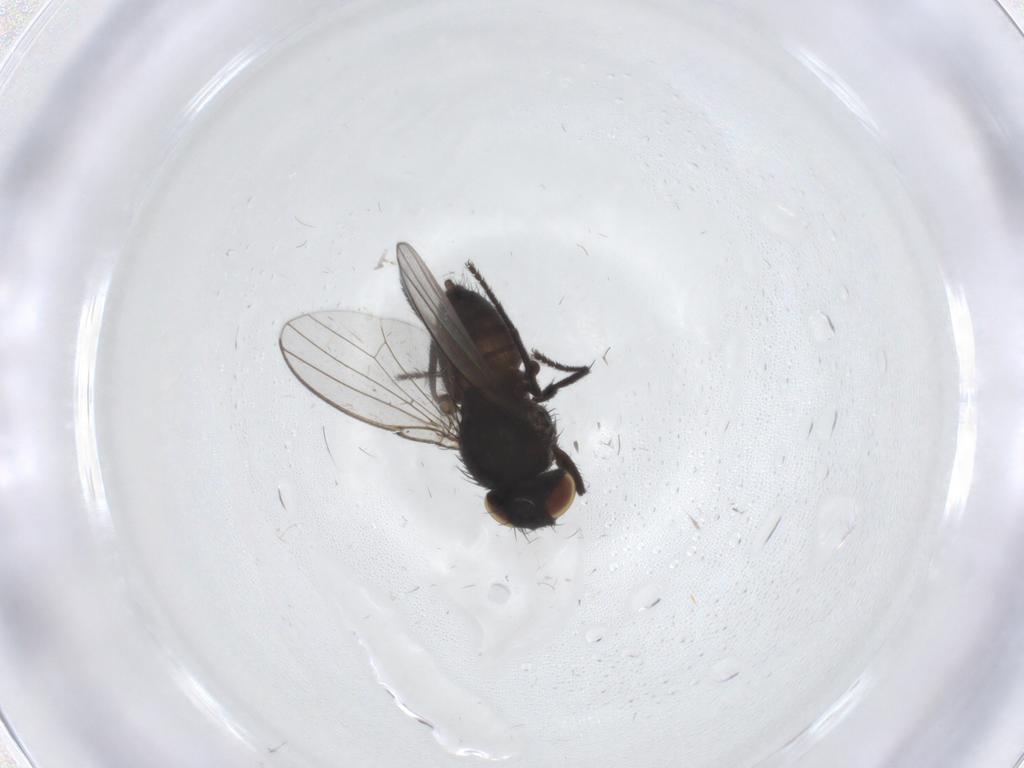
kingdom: Animalia
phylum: Arthropoda
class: Insecta
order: Diptera
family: Milichiidae
